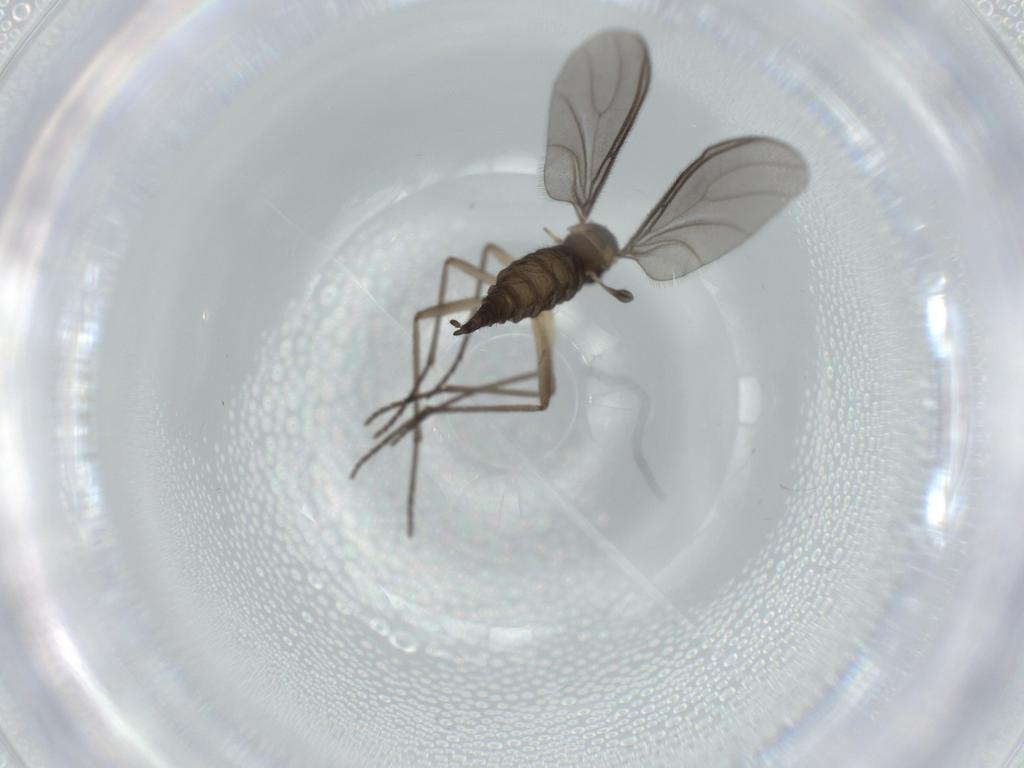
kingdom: Animalia
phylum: Arthropoda
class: Insecta
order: Diptera
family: Sciaridae
